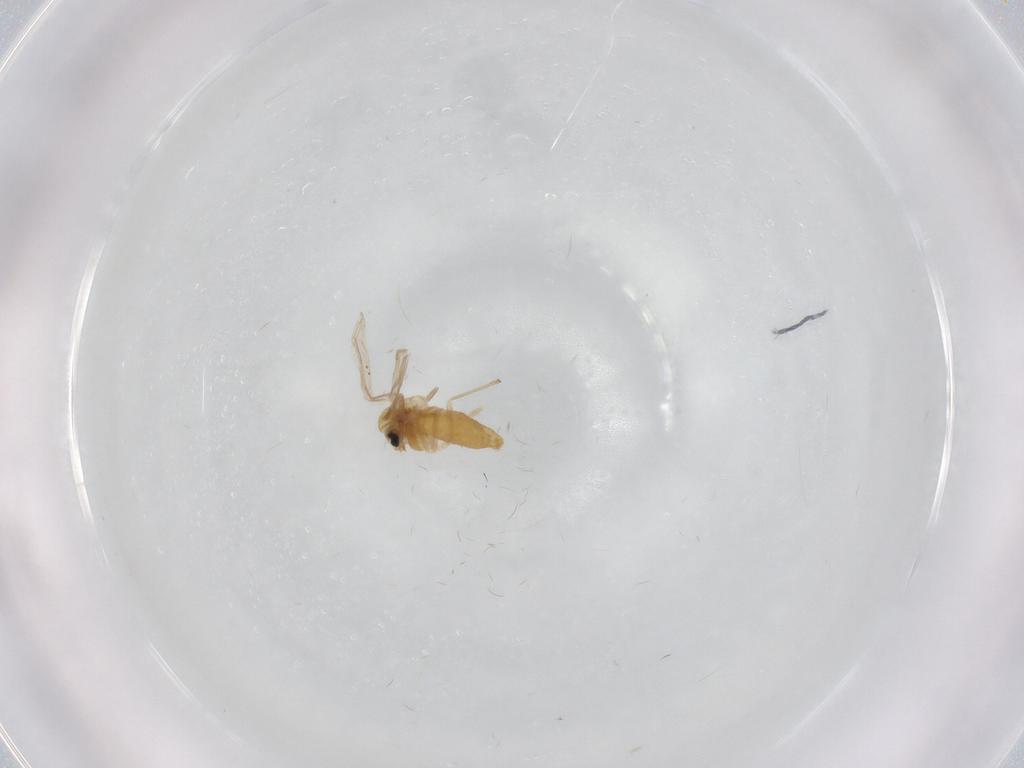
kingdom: Animalia
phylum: Arthropoda
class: Insecta
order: Diptera
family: Chironomidae
